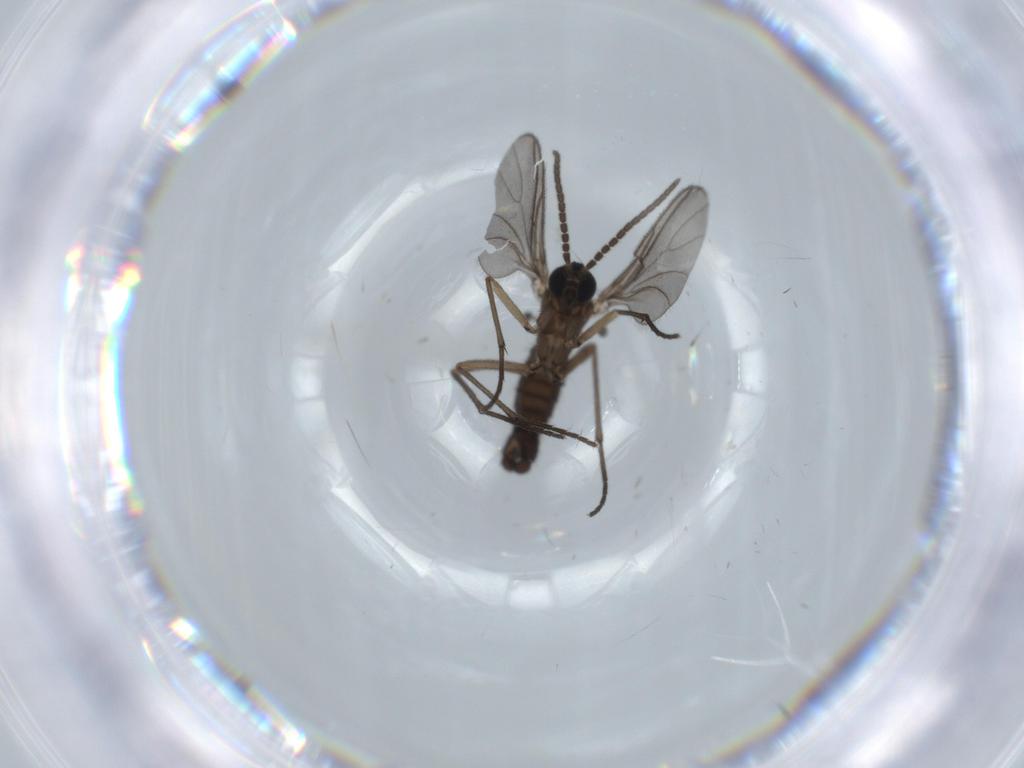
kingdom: Animalia
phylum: Arthropoda
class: Insecta
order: Diptera
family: Sciaridae
